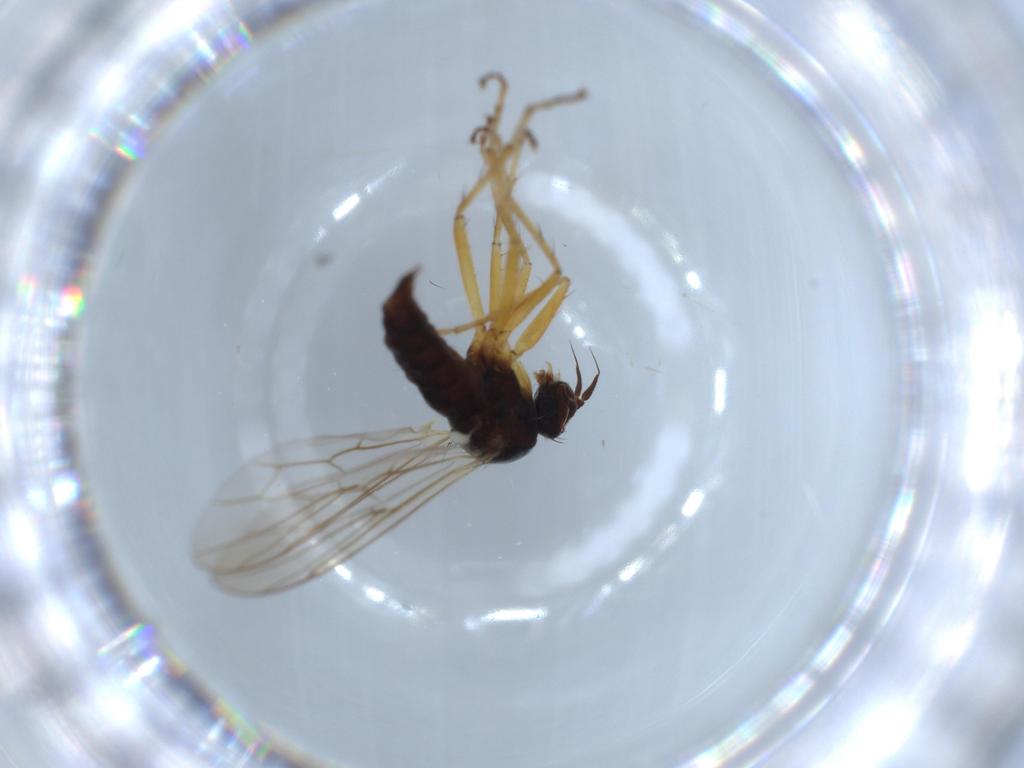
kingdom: Animalia
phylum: Arthropoda
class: Insecta
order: Diptera
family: Hybotidae
